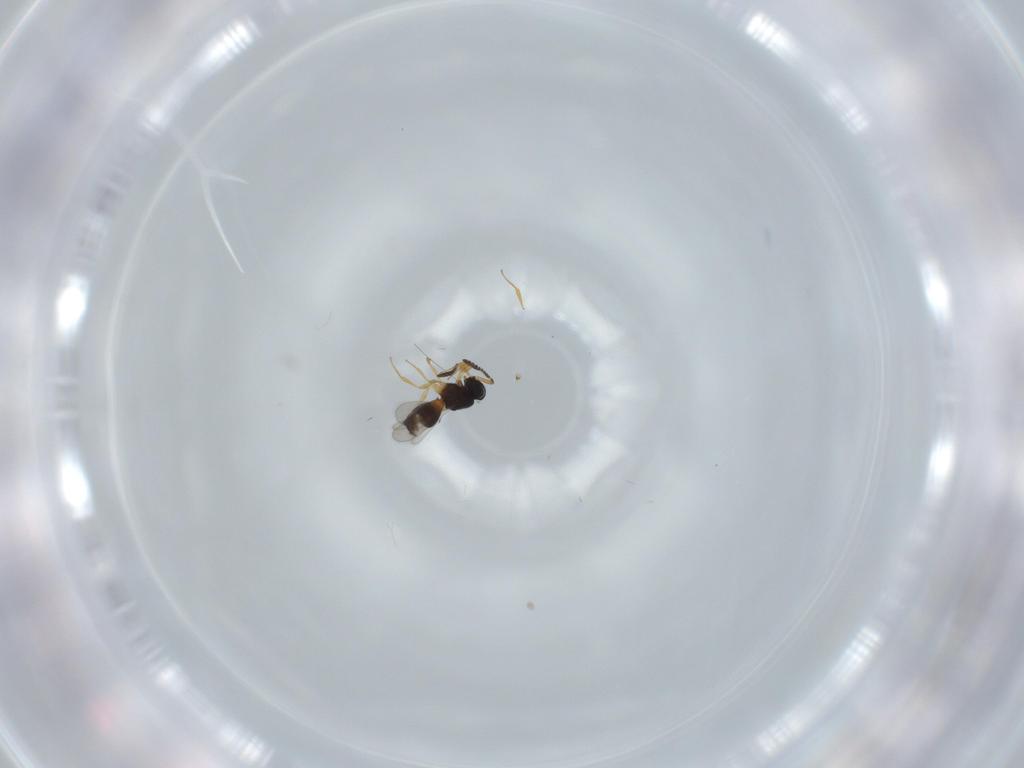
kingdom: Animalia
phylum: Arthropoda
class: Insecta
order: Hymenoptera
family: Scelionidae
